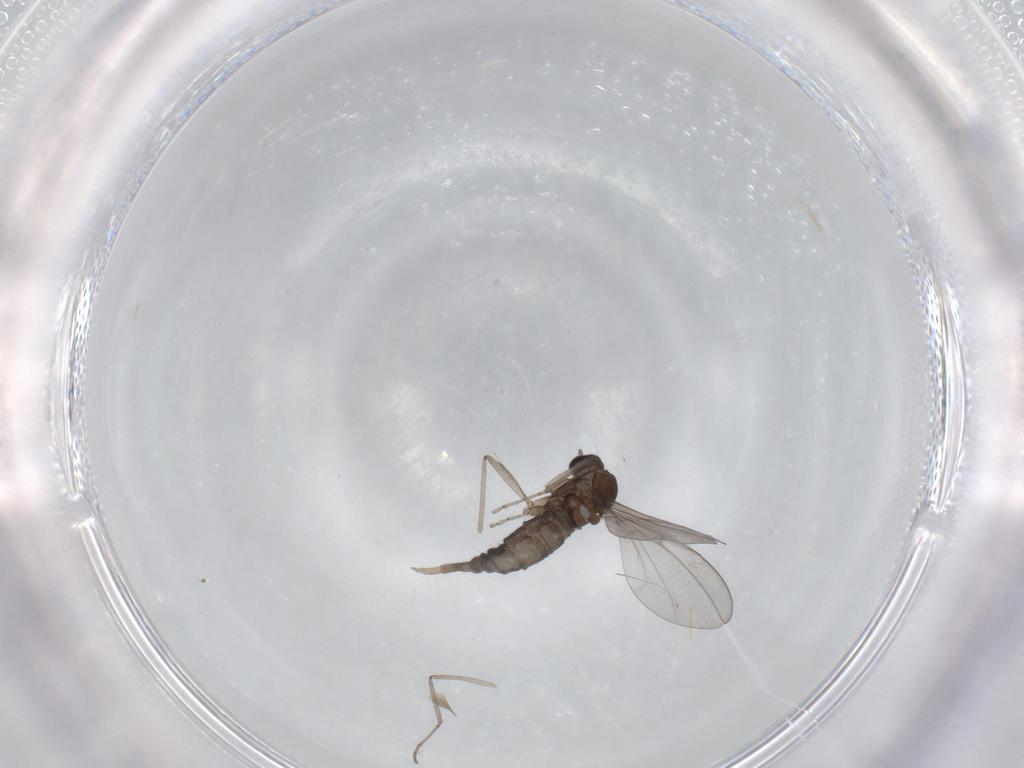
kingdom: Animalia
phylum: Arthropoda
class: Insecta
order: Diptera
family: Cecidomyiidae
